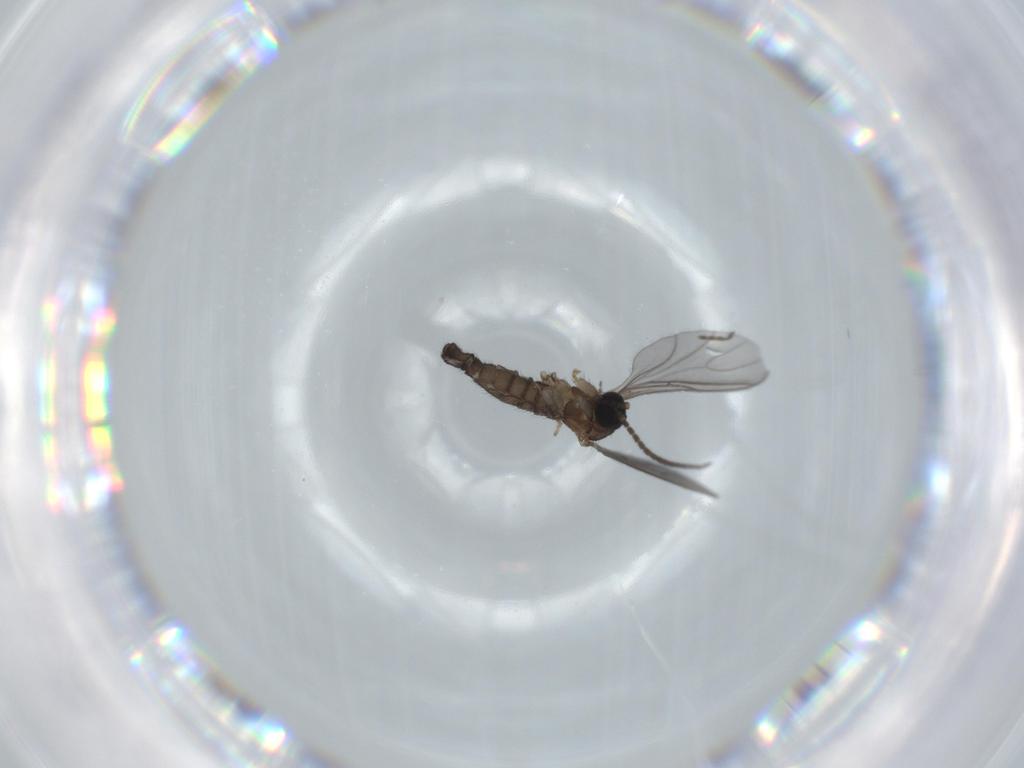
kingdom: Animalia
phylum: Arthropoda
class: Insecta
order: Diptera
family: Sciaridae
